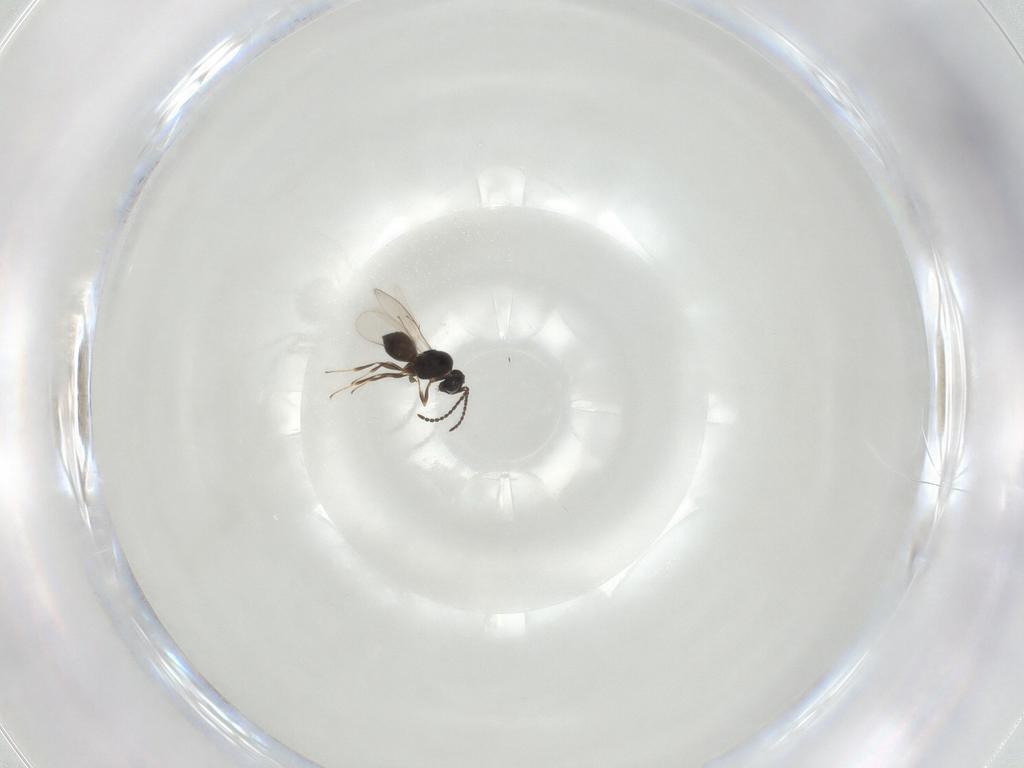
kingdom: Animalia
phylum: Arthropoda
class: Insecta
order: Hymenoptera
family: Scelionidae
